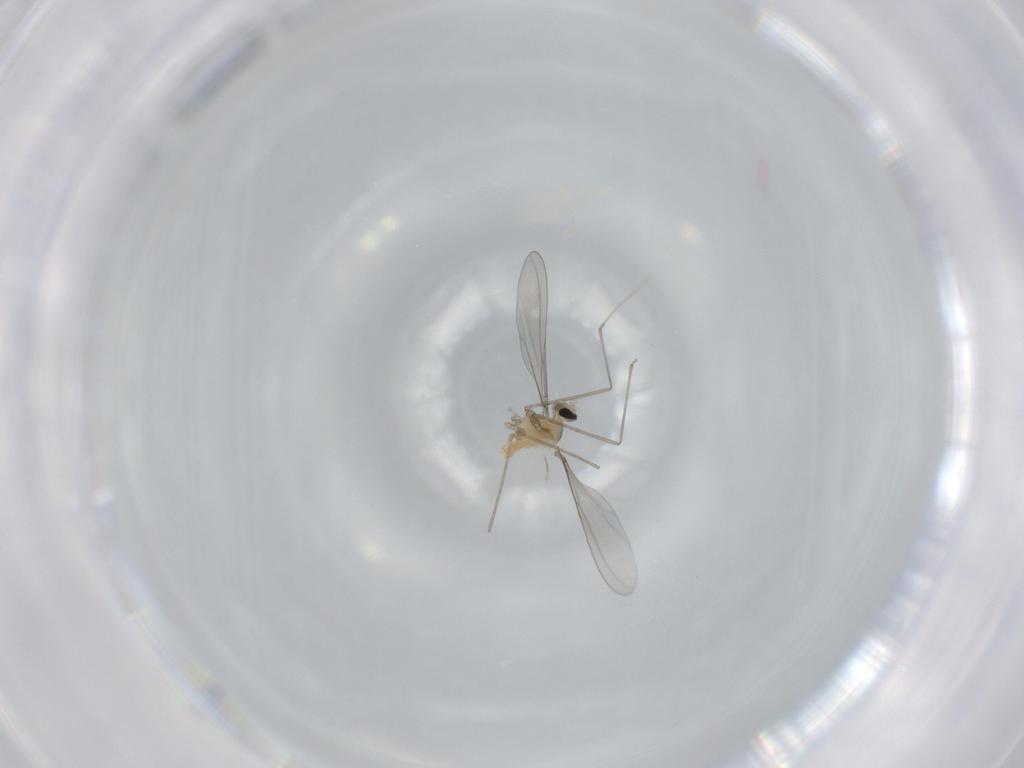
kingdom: Animalia
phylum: Arthropoda
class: Insecta
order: Diptera
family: Cecidomyiidae
